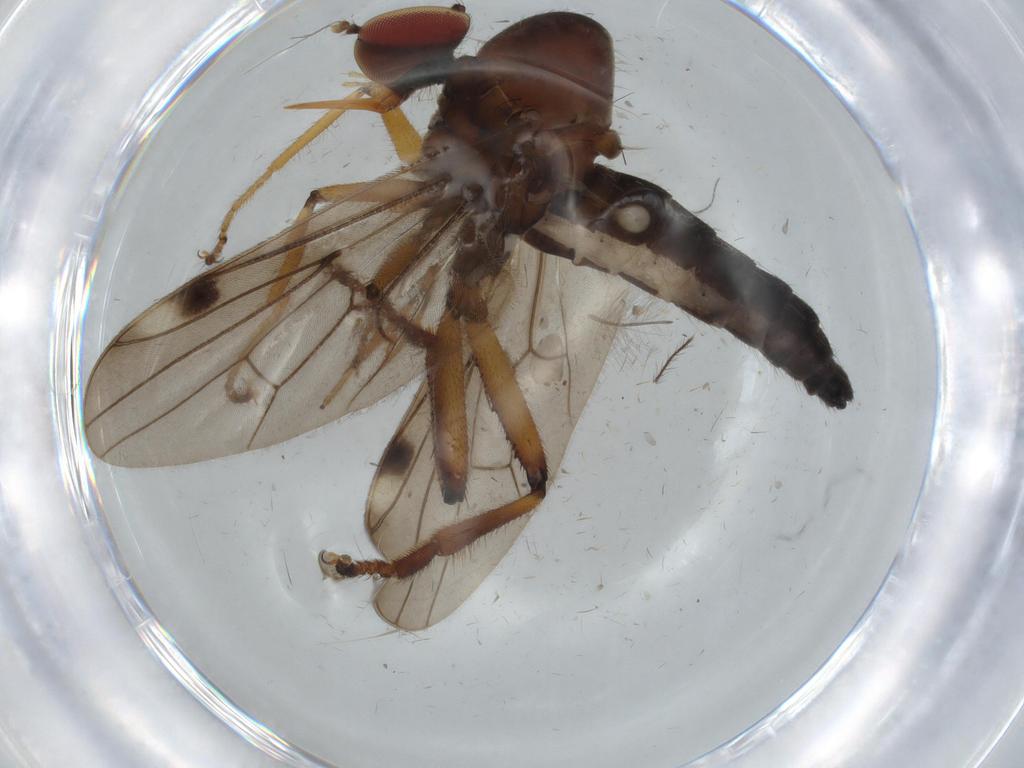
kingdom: Animalia
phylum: Arthropoda
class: Insecta
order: Diptera
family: Hybotidae
